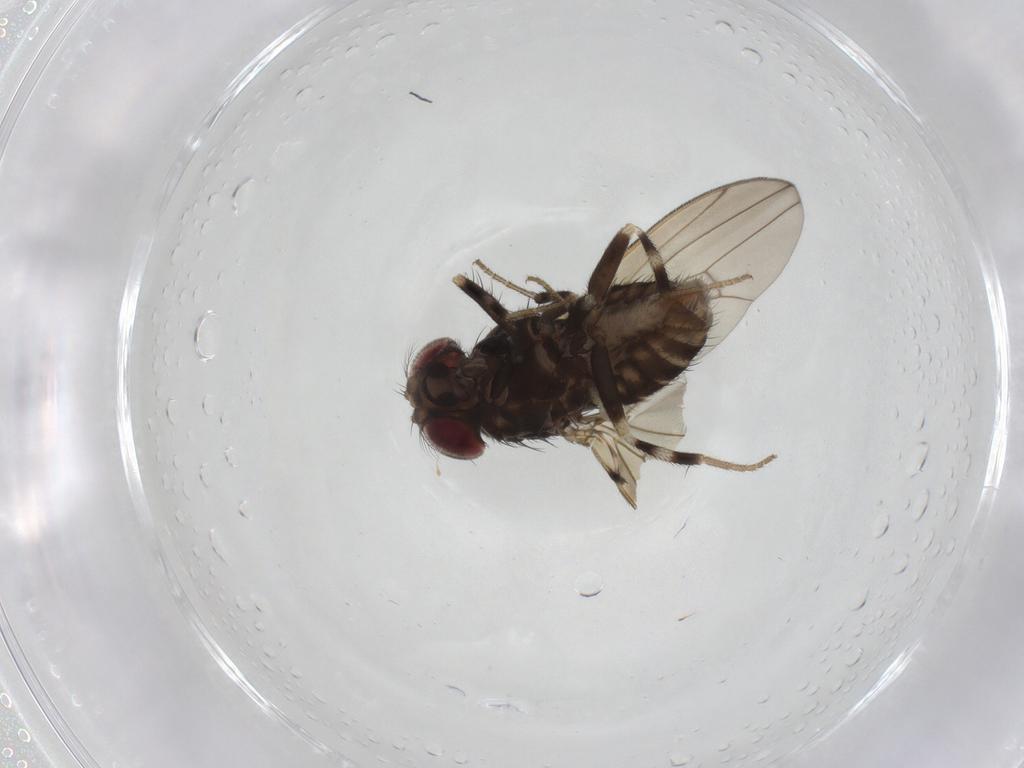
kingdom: Animalia
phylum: Arthropoda
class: Insecta
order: Diptera
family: Drosophilidae
